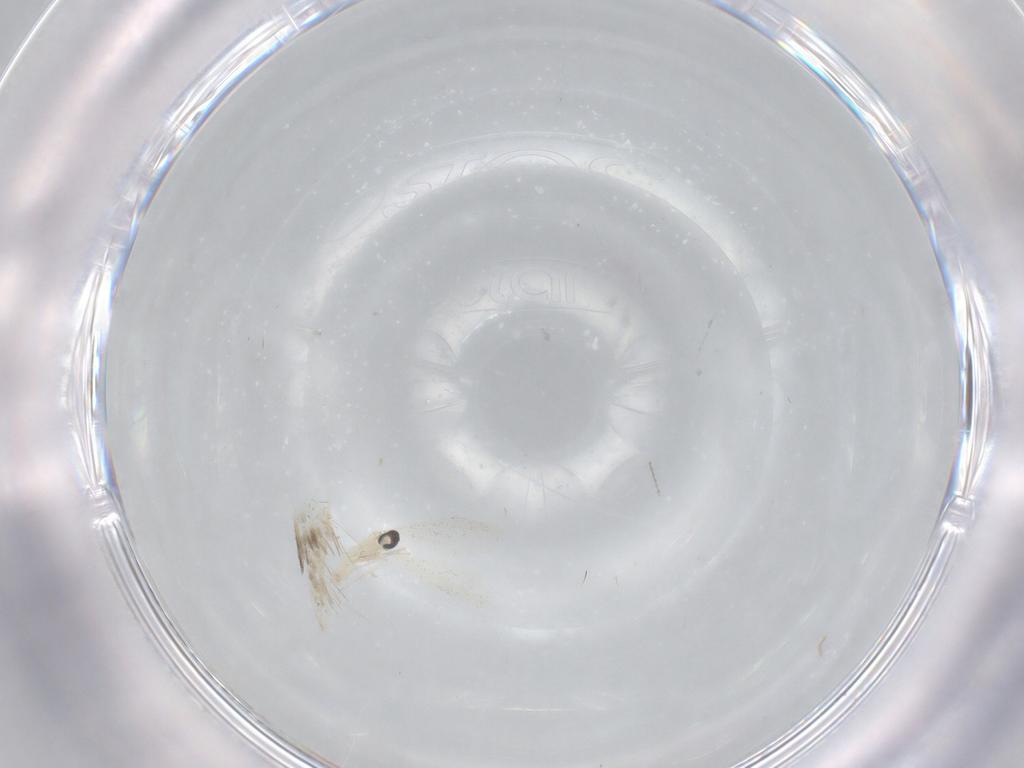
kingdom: Animalia
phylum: Arthropoda
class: Insecta
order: Diptera
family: Cecidomyiidae
